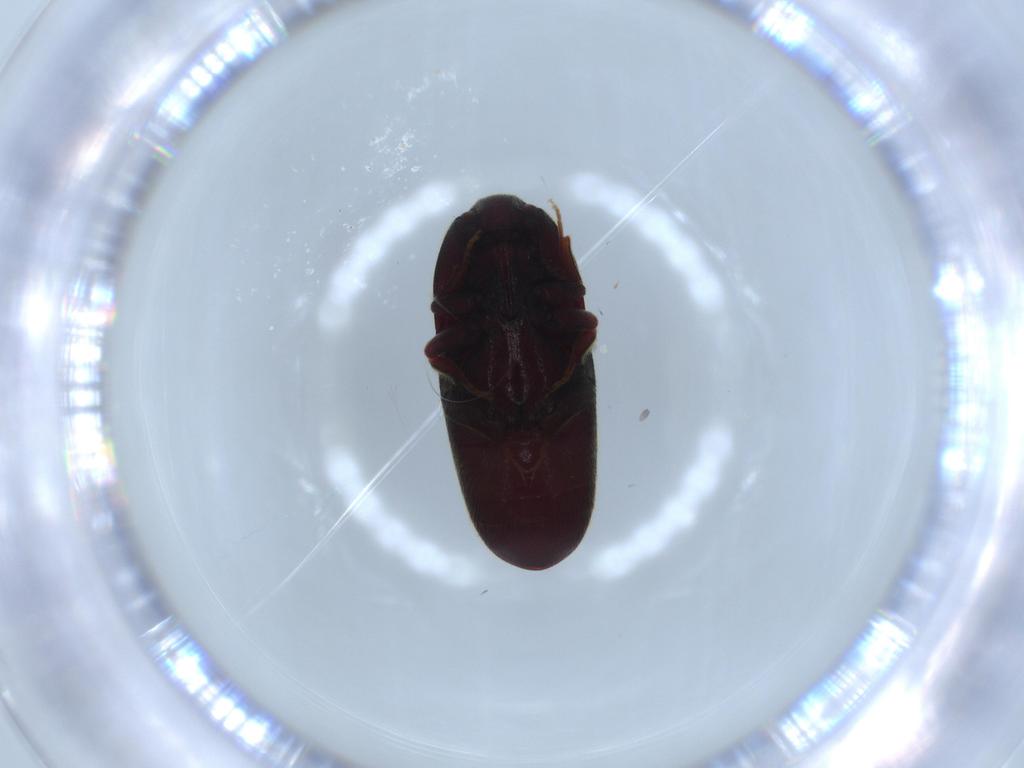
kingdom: Animalia
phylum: Arthropoda
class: Insecta
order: Coleoptera
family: Throscidae
